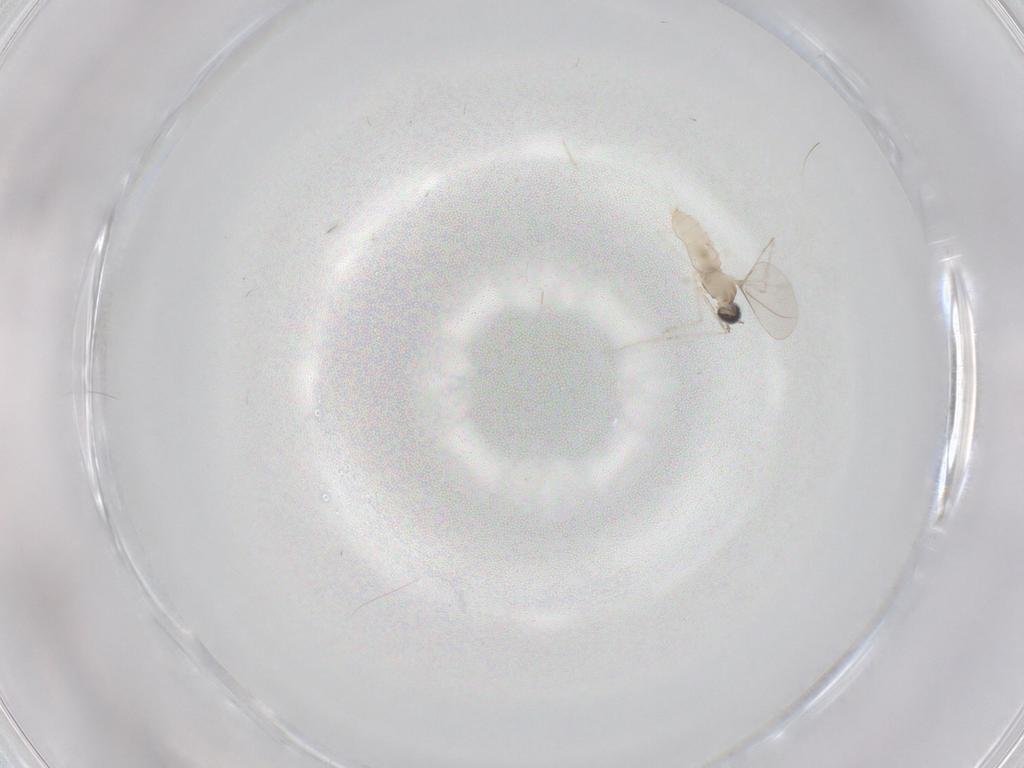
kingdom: Animalia
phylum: Arthropoda
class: Insecta
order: Diptera
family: Cecidomyiidae
